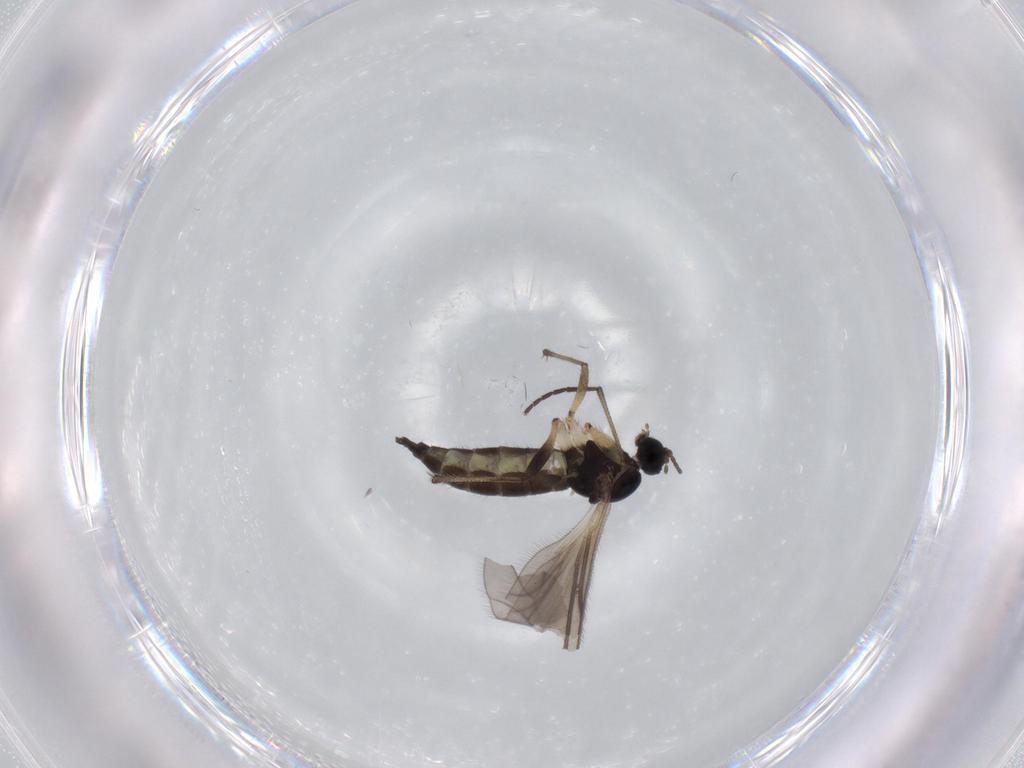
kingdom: Animalia
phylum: Arthropoda
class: Insecta
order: Diptera
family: Sciaridae
